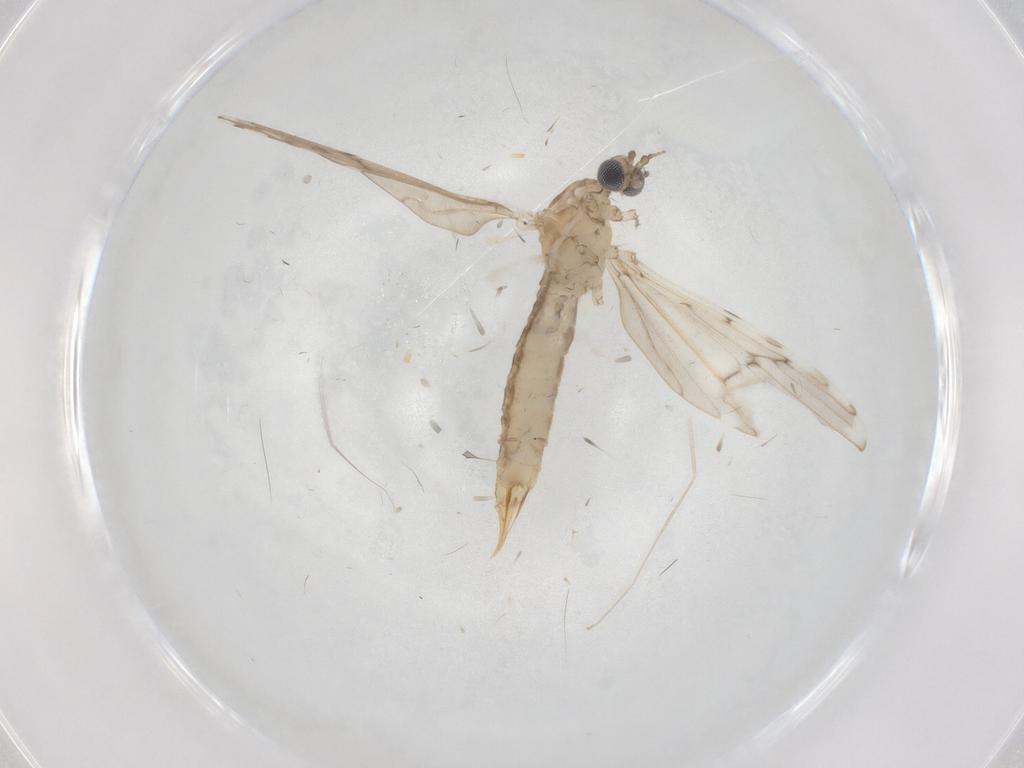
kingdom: Animalia
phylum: Arthropoda
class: Insecta
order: Diptera
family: Cecidomyiidae
